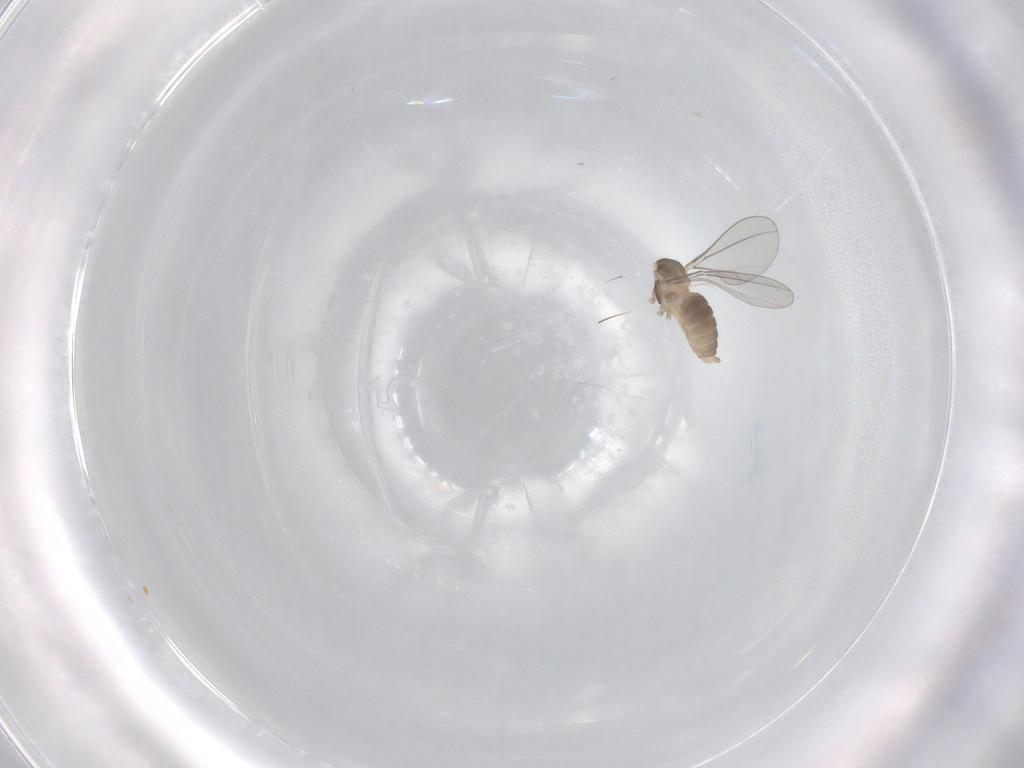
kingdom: Animalia
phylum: Arthropoda
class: Insecta
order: Diptera
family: Cecidomyiidae
